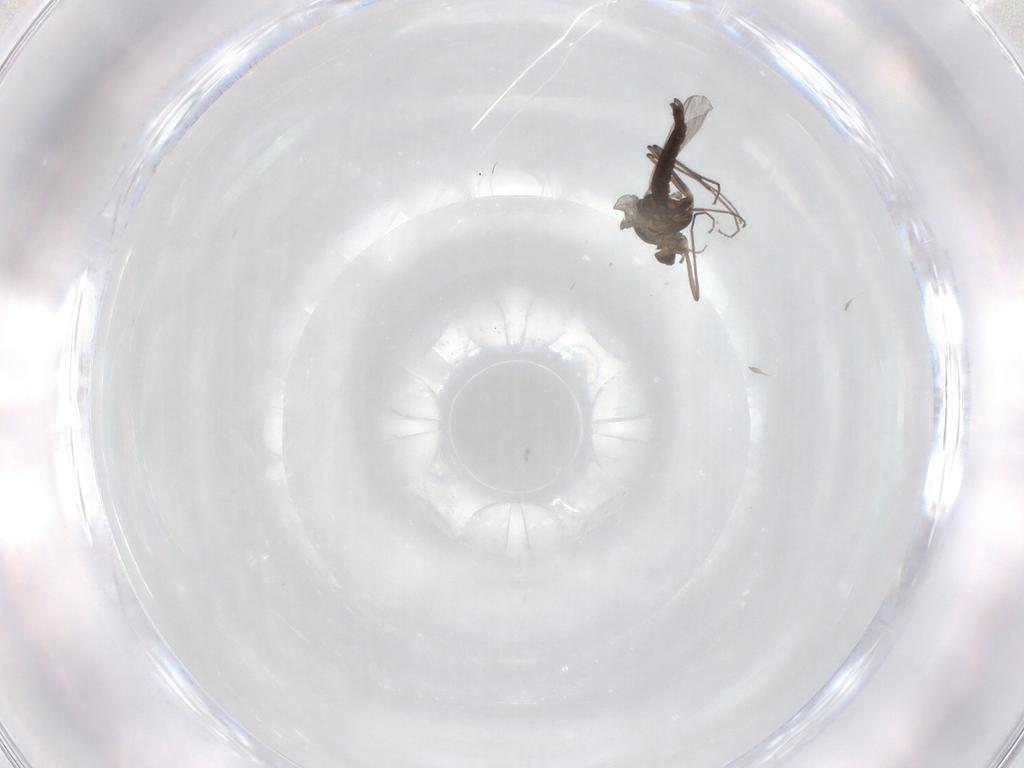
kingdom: Animalia
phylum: Arthropoda
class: Insecta
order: Diptera
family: Chironomidae
